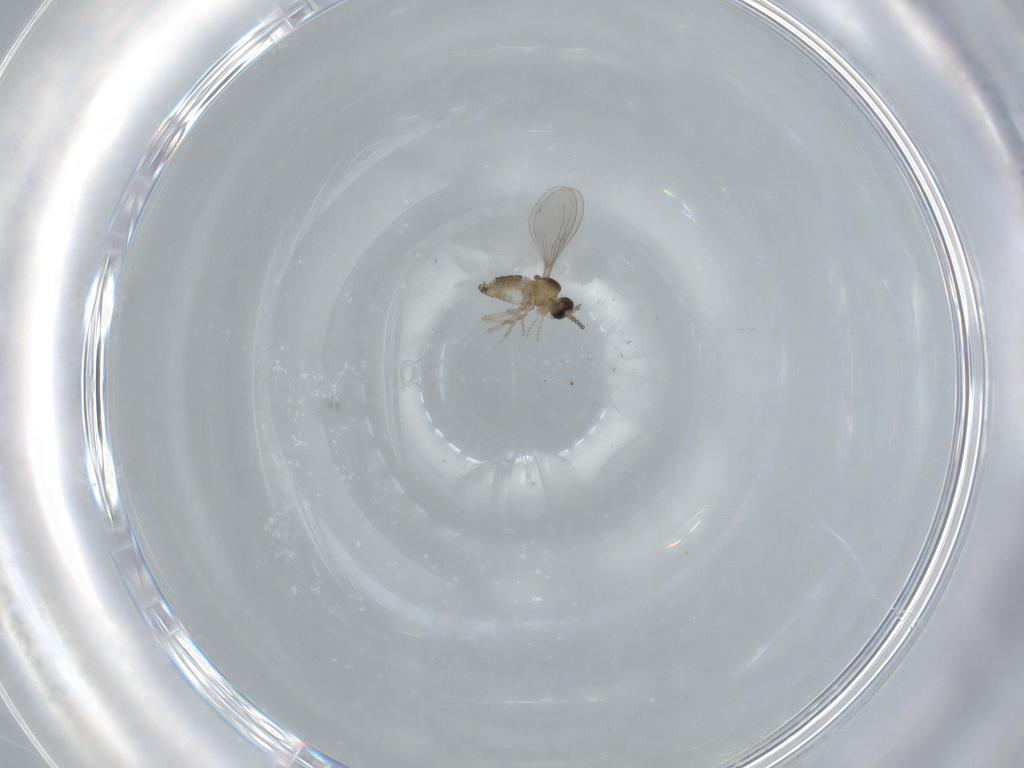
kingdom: Animalia
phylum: Arthropoda
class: Insecta
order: Diptera
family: Cecidomyiidae
